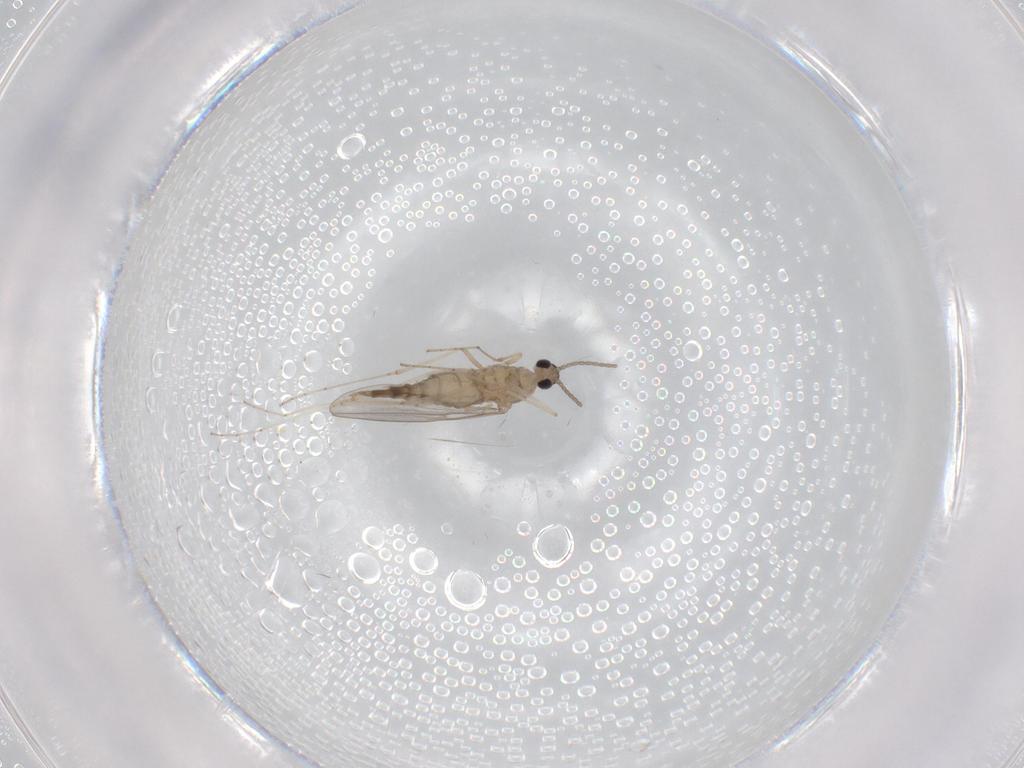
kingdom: Animalia
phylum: Arthropoda
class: Insecta
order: Diptera
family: Cecidomyiidae
